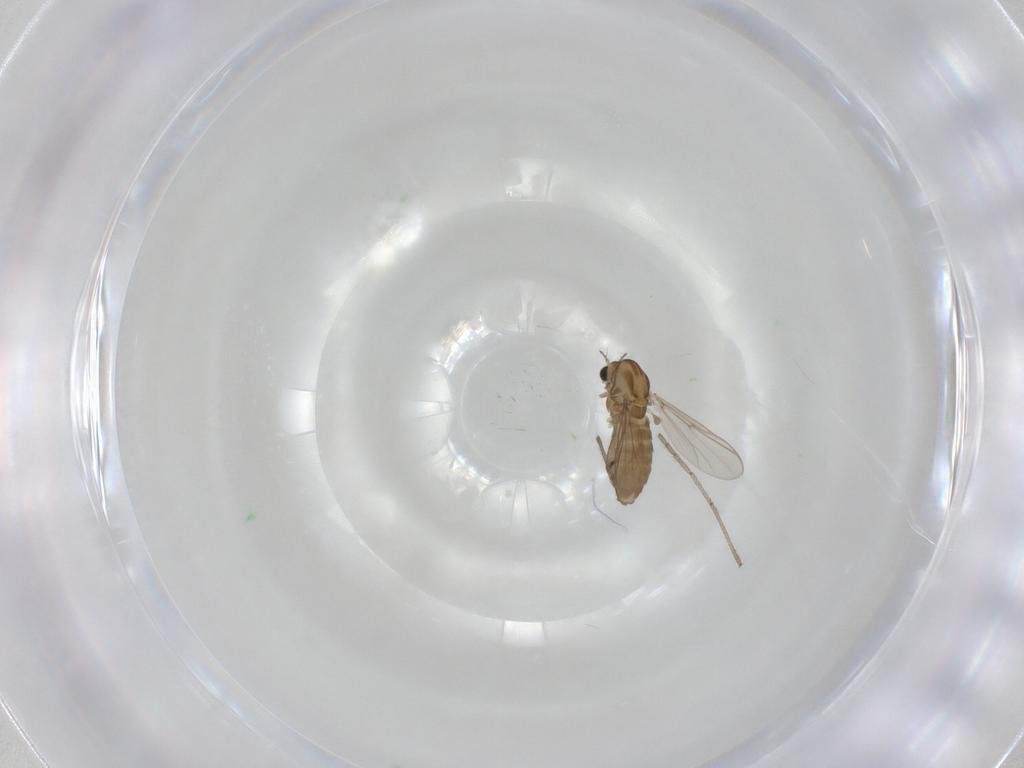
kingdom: Animalia
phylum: Arthropoda
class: Insecta
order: Diptera
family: Chironomidae
